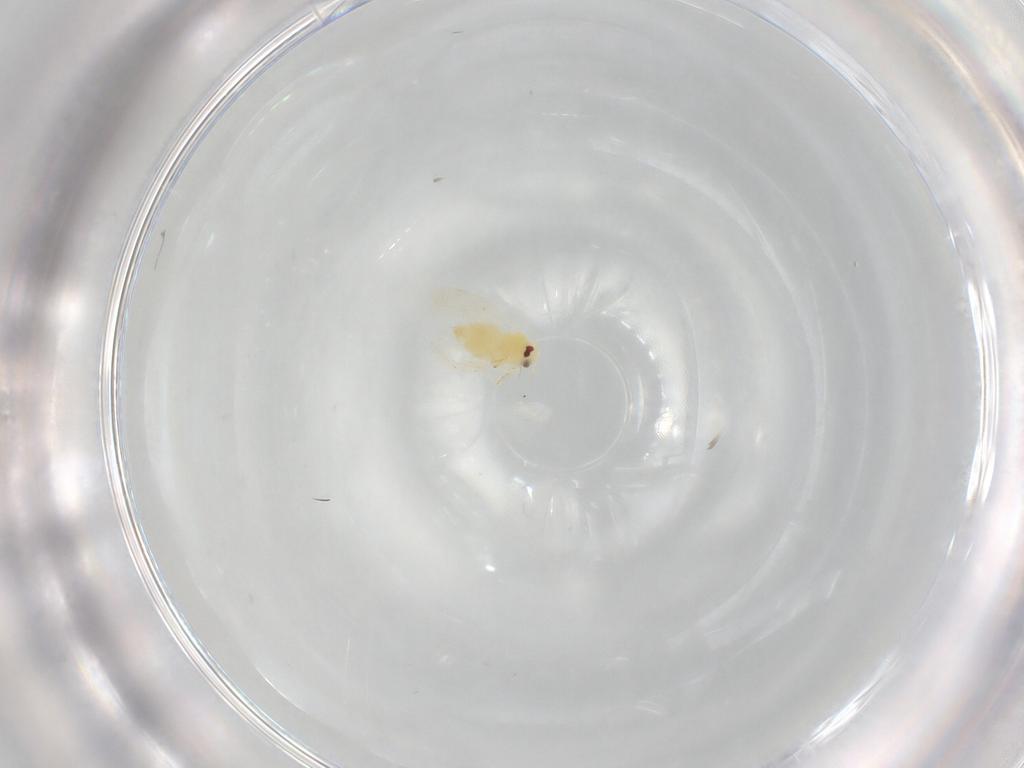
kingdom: Animalia
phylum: Arthropoda
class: Insecta
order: Hemiptera
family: Aleyrodidae
